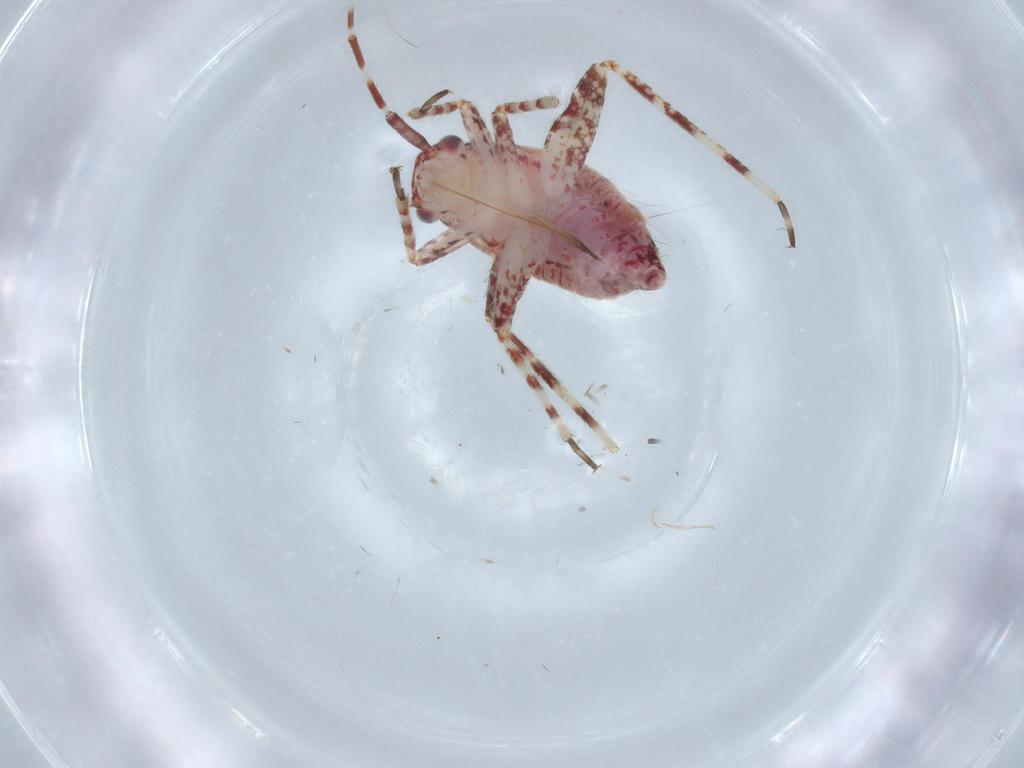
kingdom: Animalia
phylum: Arthropoda
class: Insecta
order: Hemiptera
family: Miridae
